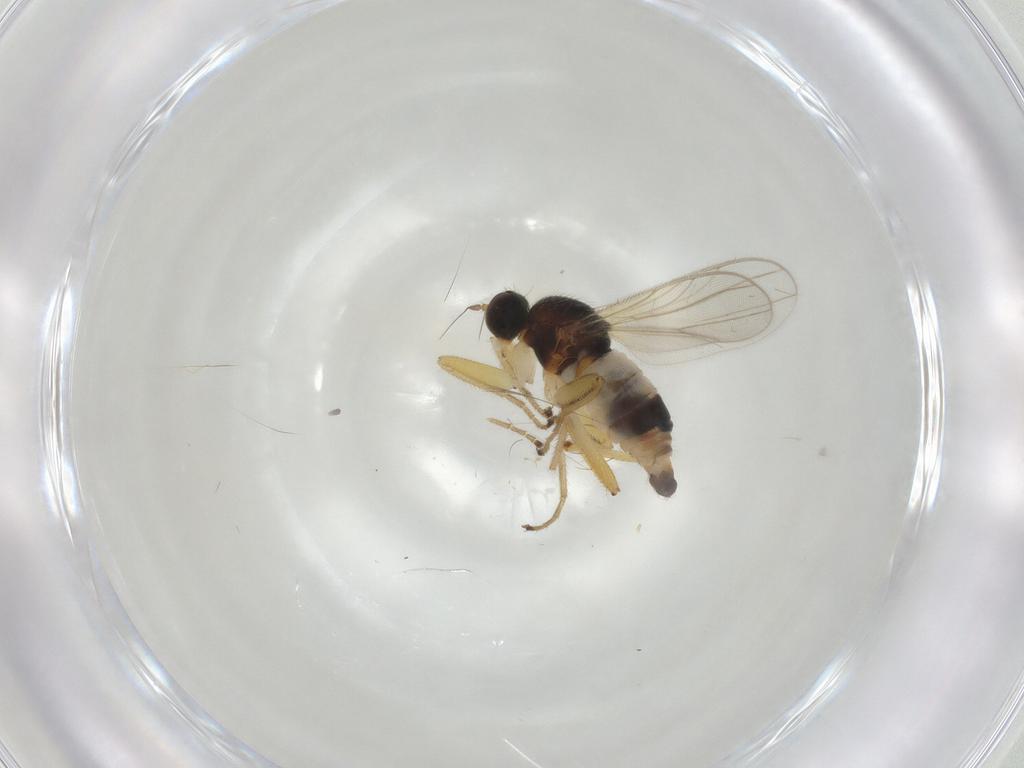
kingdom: Animalia
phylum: Arthropoda
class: Insecta
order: Diptera
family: Hybotidae
